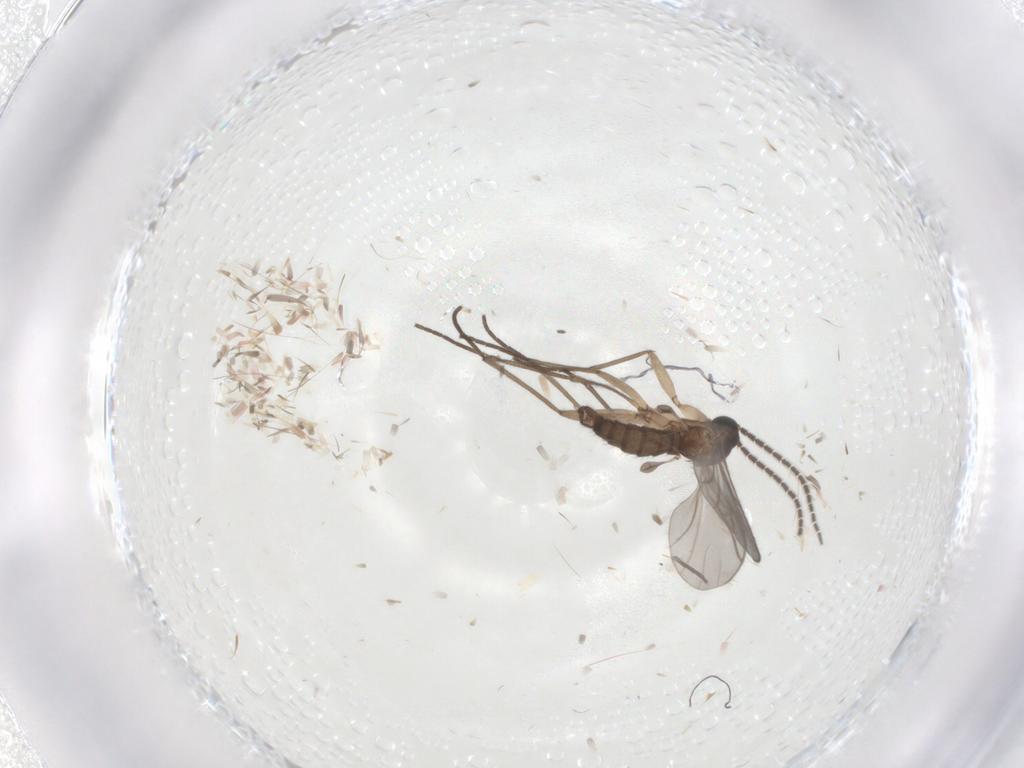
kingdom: Animalia
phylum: Arthropoda
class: Insecta
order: Diptera
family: Sciaridae
